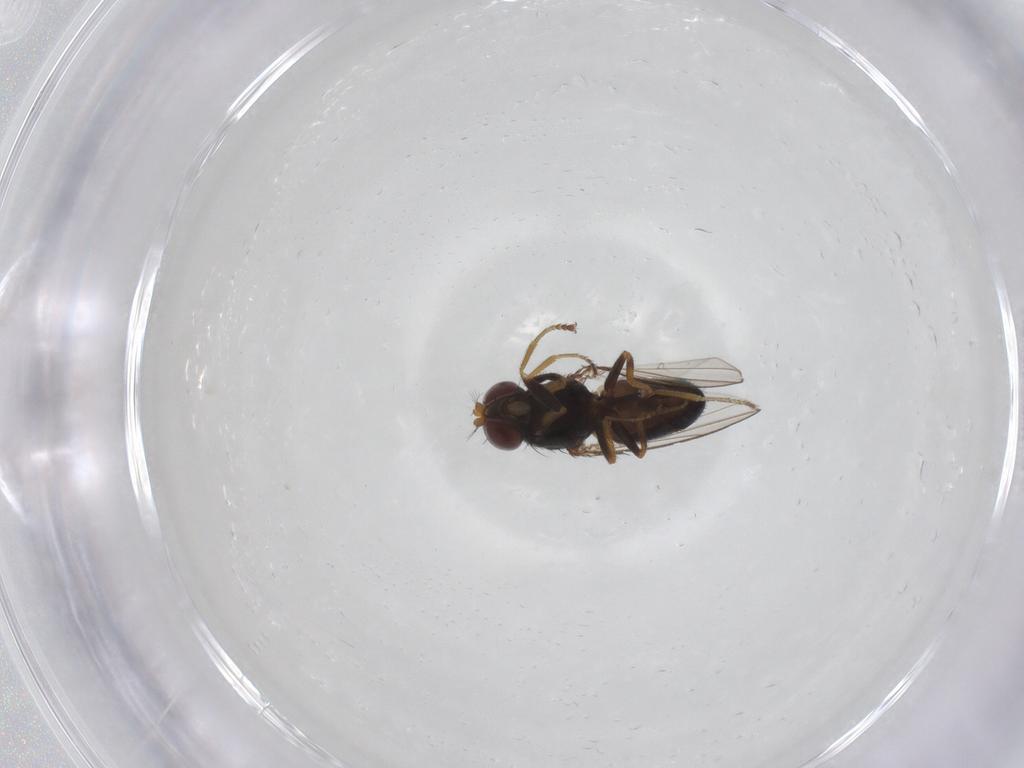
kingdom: Animalia
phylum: Arthropoda
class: Insecta
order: Diptera
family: Ephydridae
